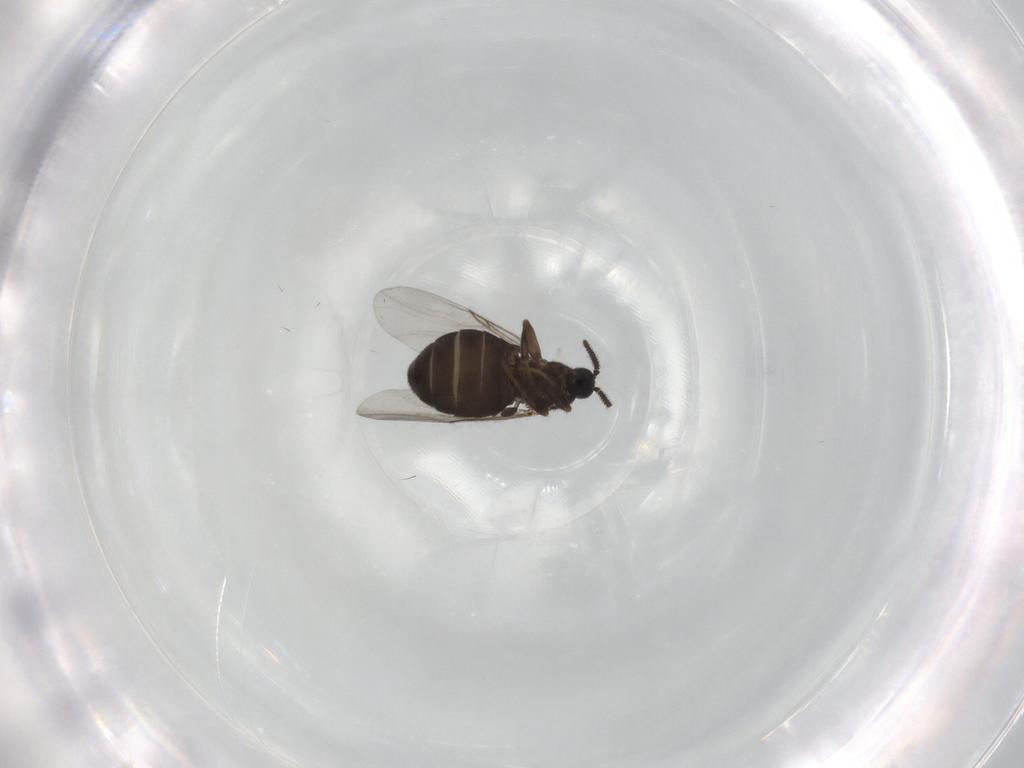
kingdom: Animalia
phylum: Arthropoda
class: Insecta
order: Diptera
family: Scatopsidae
